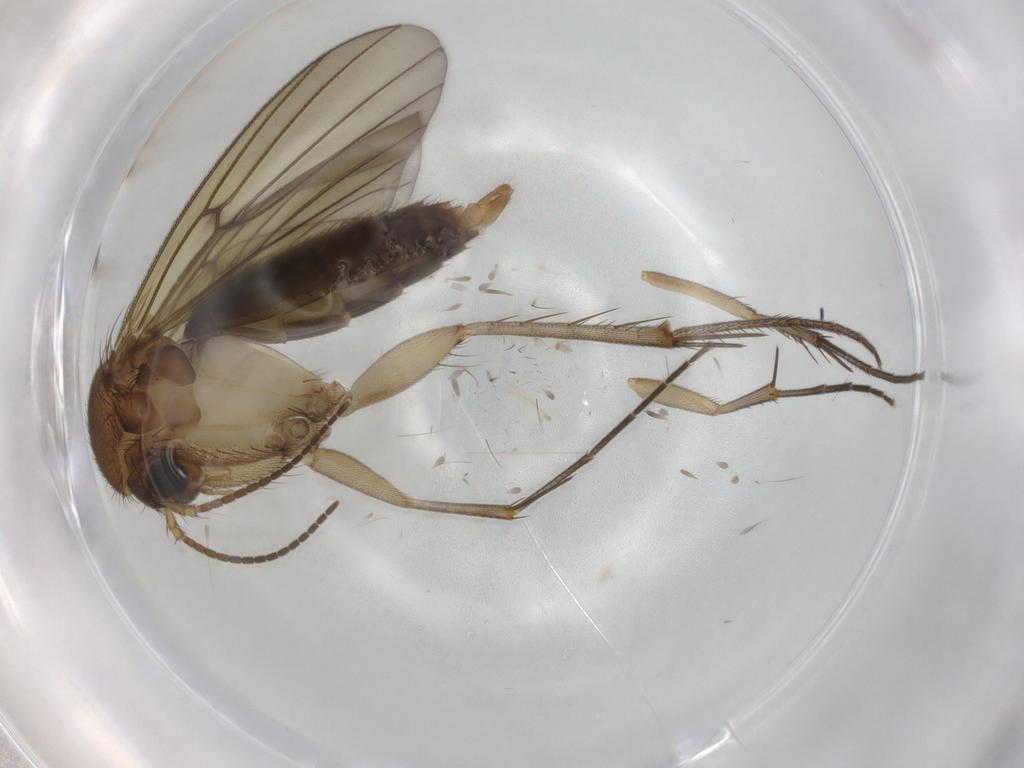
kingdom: Animalia
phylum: Arthropoda
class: Insecta
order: Diptera
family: Mycetophilidae
